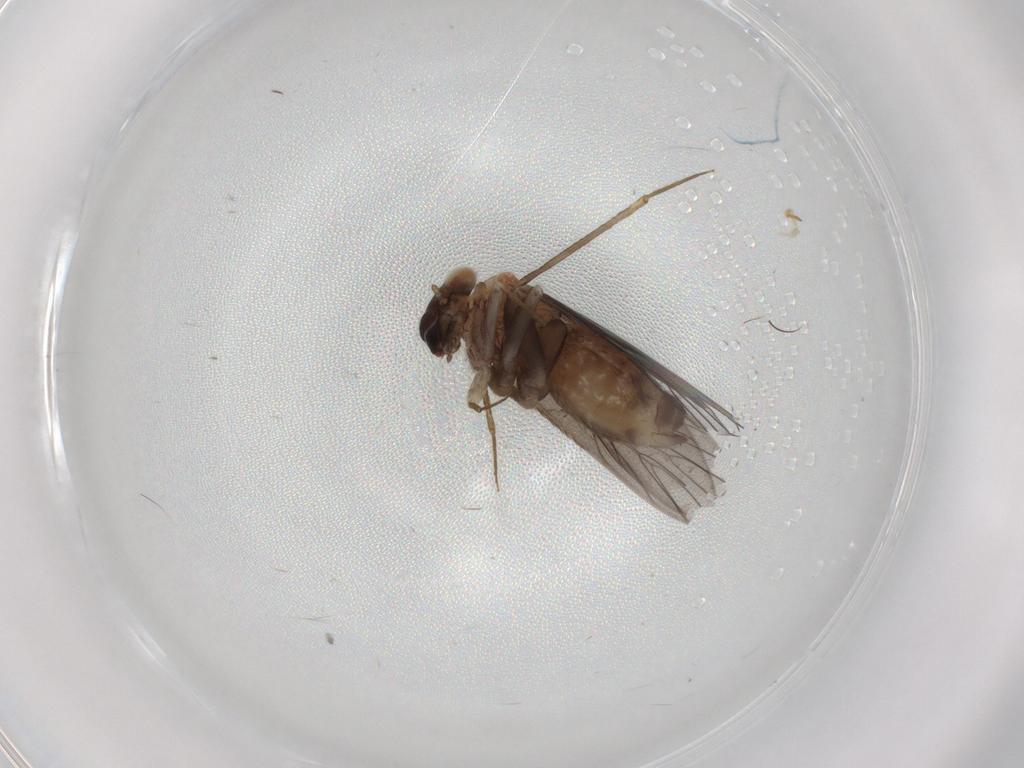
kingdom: Animalia
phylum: Arthropoda
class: Insecta
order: Psocodea
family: Lepidopsocidae
